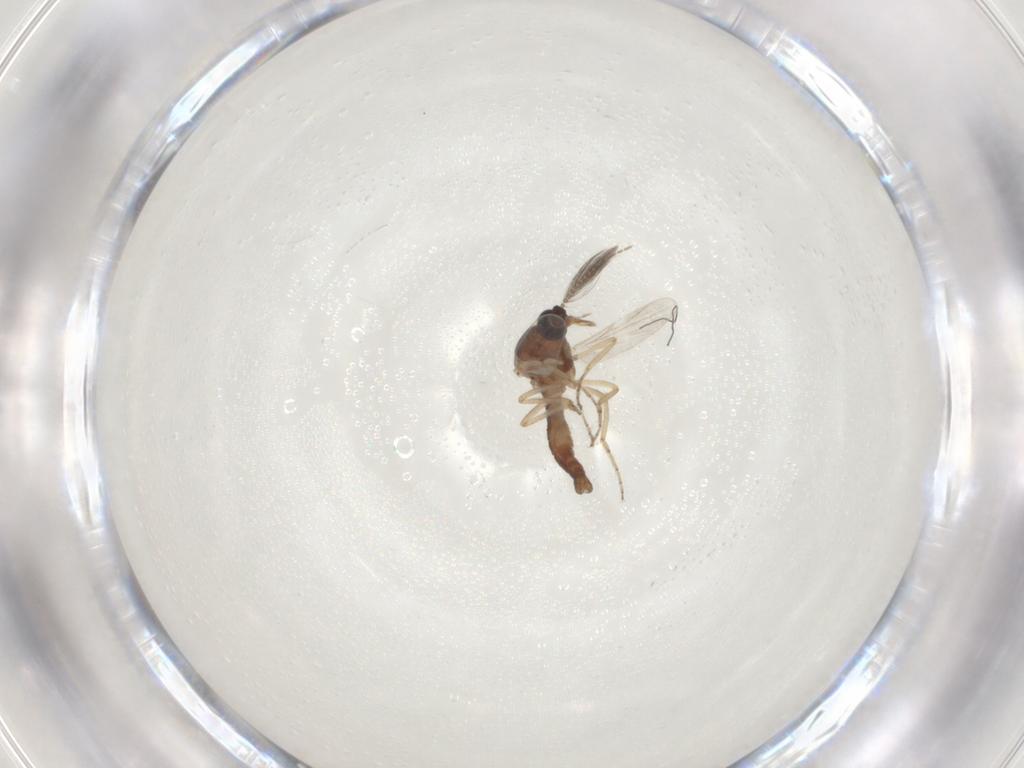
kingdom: Animalia
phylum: Arthropoda
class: Insecta
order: Diptera
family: Ceratopogonidae
